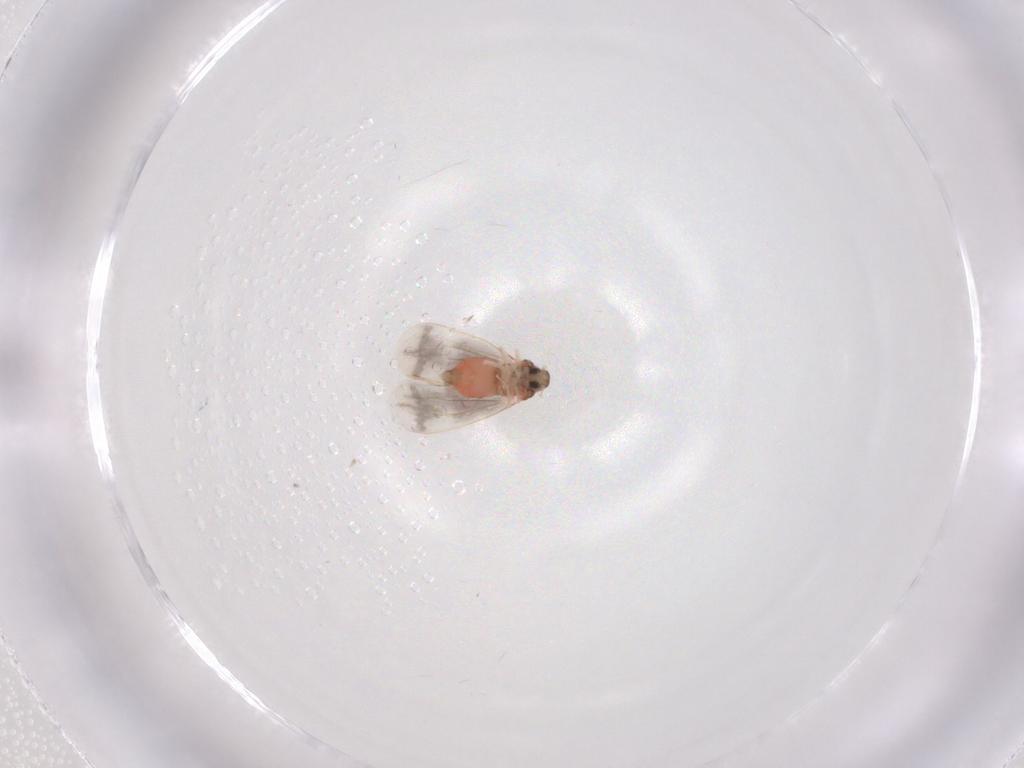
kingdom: Animalia
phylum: Arthropoda
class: Insecta
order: Hemiptera
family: Aleyrodidae
